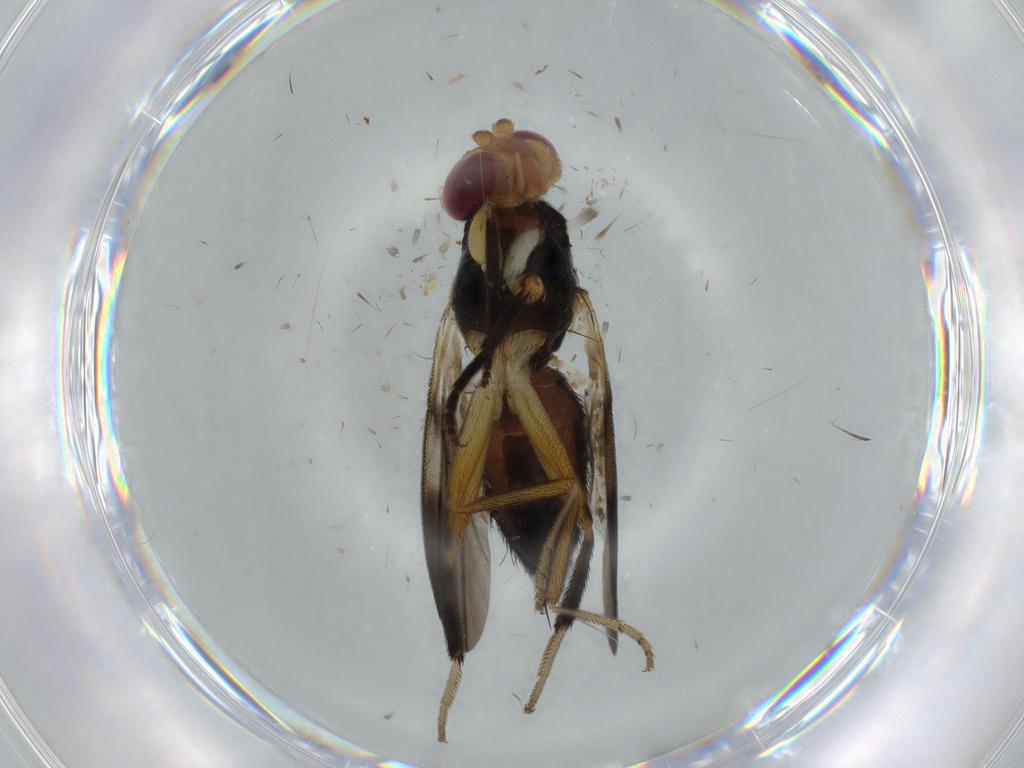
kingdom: Animalia
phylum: Arthropoda
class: Insecta
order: Diptera
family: Clusiidae
